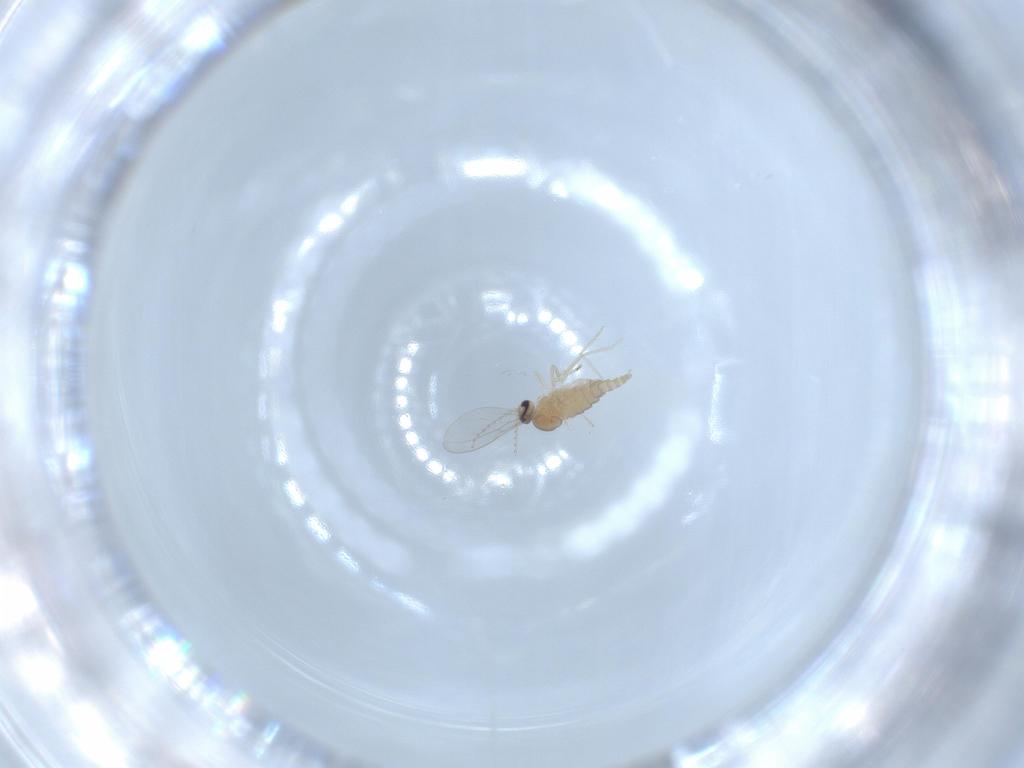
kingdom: Animalia
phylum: Arthropoda
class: Insecta
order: Diptera
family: Cecidomyiidae
